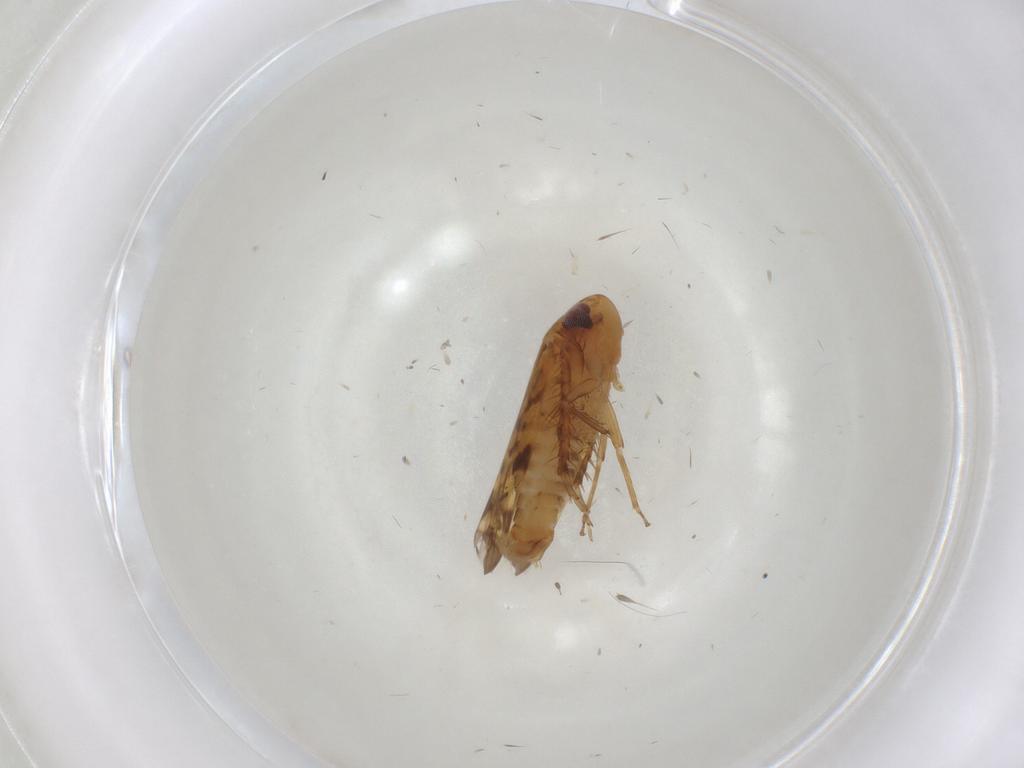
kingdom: Animalia
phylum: Arthropoda
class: Insecta
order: Hemiptera
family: Cicadellidae
